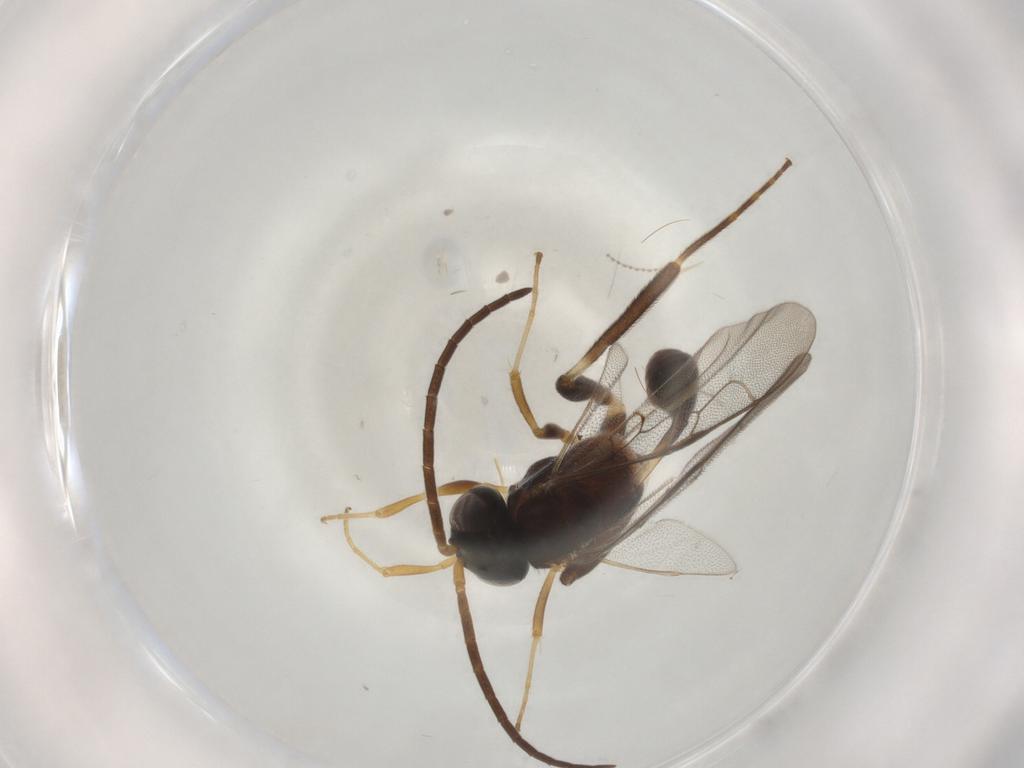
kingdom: Animalia
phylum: Arthropoda
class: Insecta
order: Hymenoptera
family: Evaniidae
